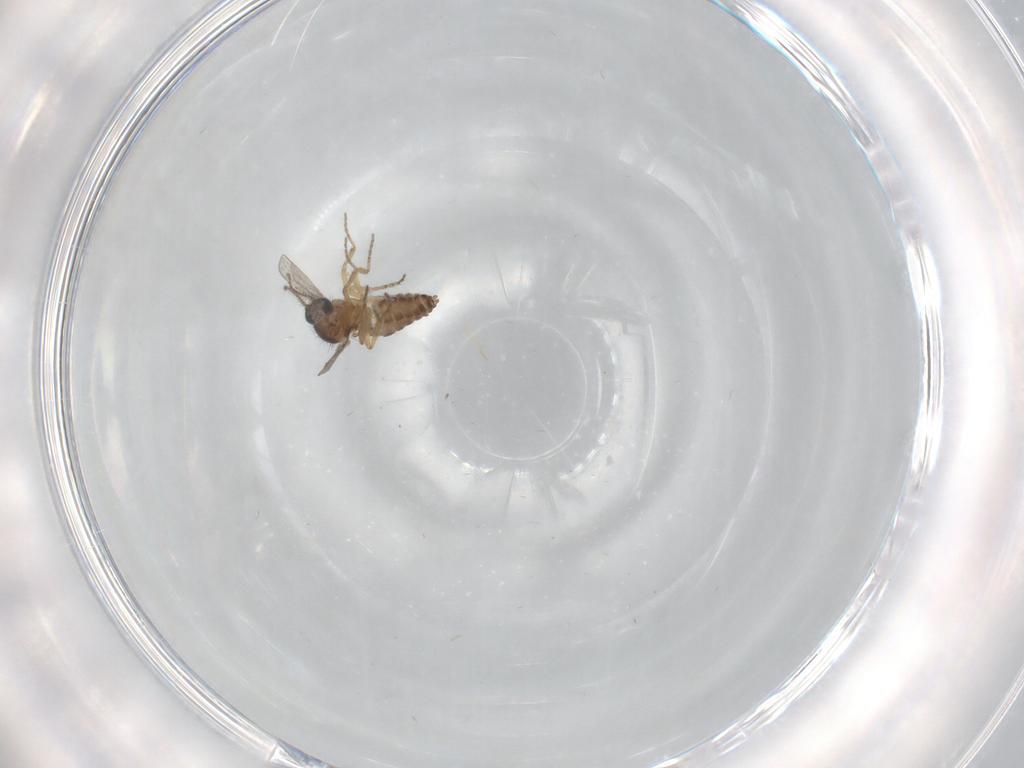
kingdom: Animalia
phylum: Arthropoda
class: Insecta
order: Diptera
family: Ceratopogonidae
